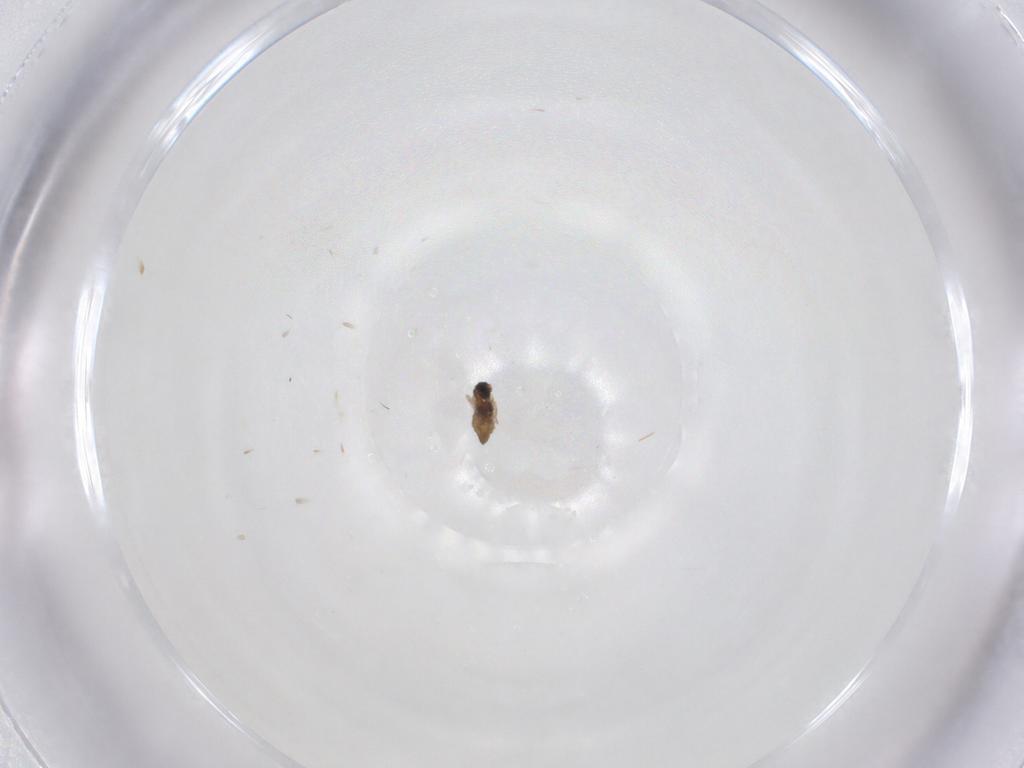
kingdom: Animalia
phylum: Arthropoda
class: Insecta
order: Diptera
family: Cecidomyiidae
